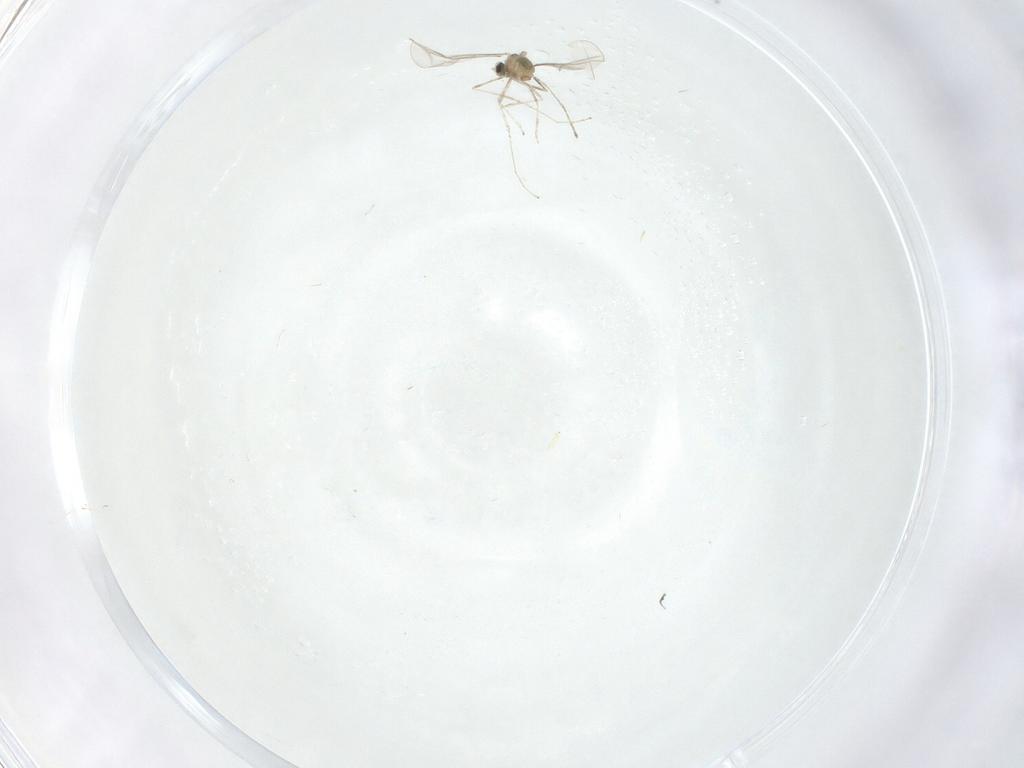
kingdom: Animalia
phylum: Arthropoda
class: Insecta
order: Diptera
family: Cecidomyiidae
